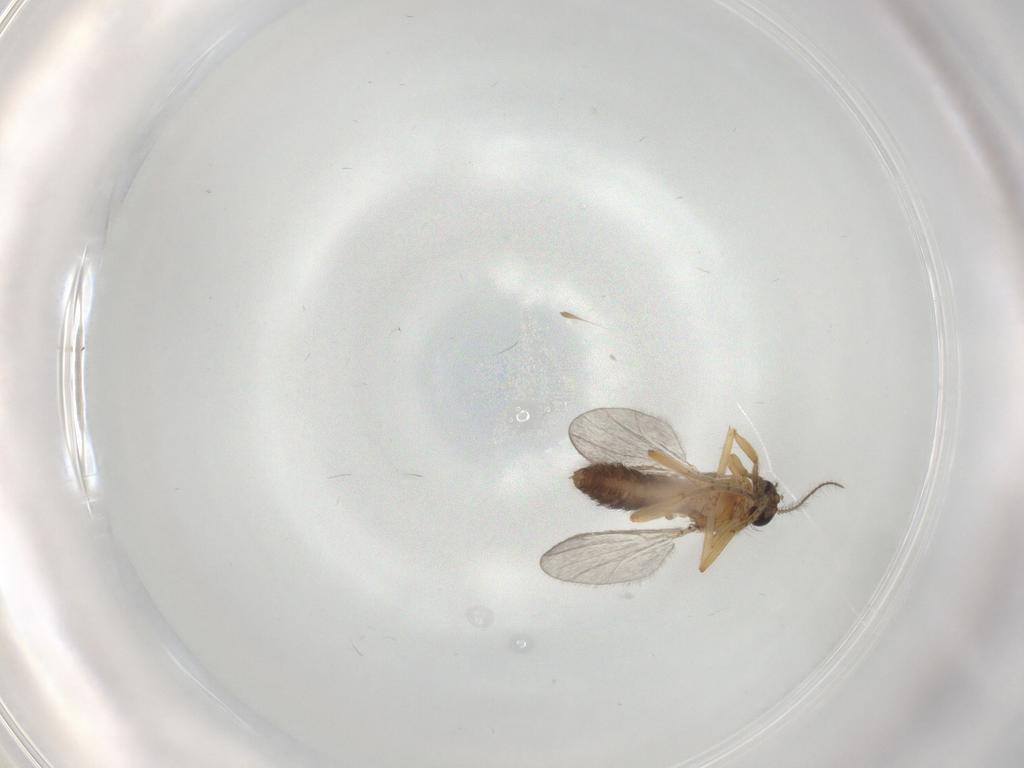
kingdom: Animalia
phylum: Arthropoda
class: Insecta
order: Diptera
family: Ceratopogonidae
